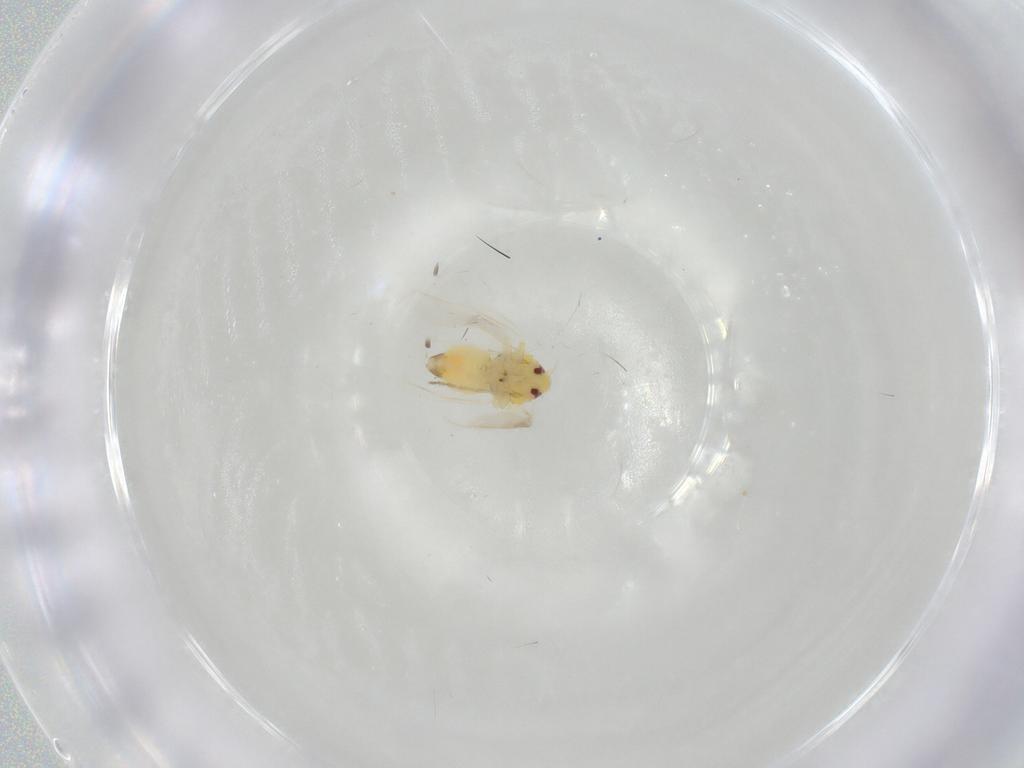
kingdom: Animalia
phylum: Arthropoda
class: Insecta
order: Hemiptera
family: Aleyrodidae
